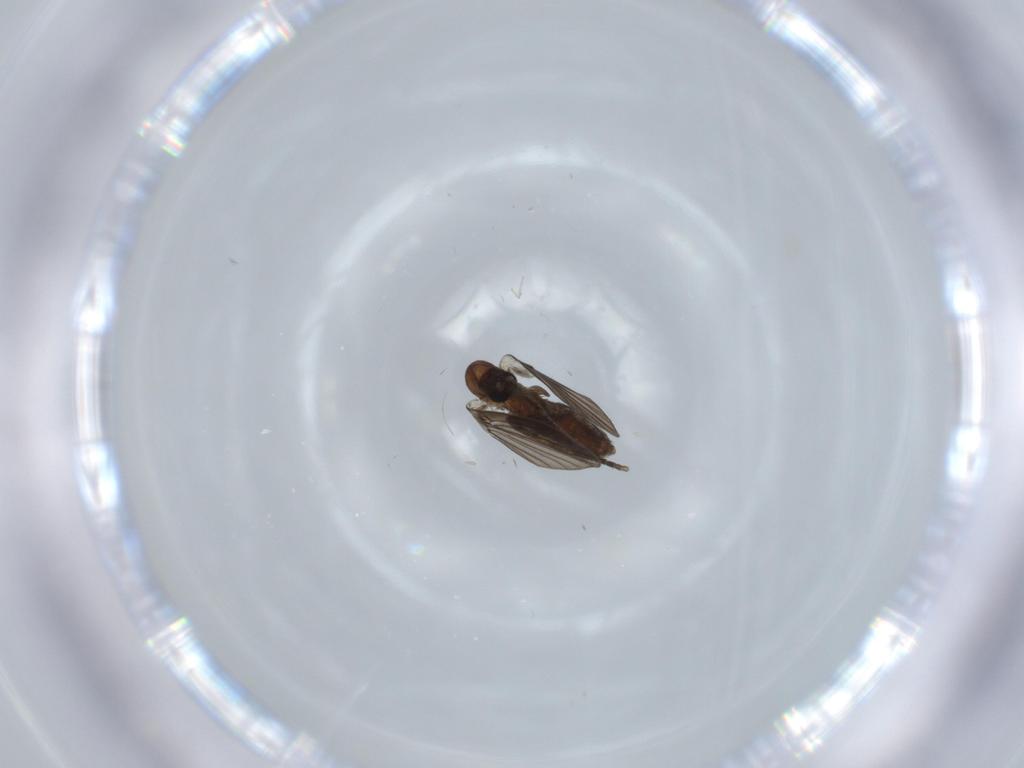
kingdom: Animalia
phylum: Arthropoda
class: Insecta
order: Diptera
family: Psychodidae
